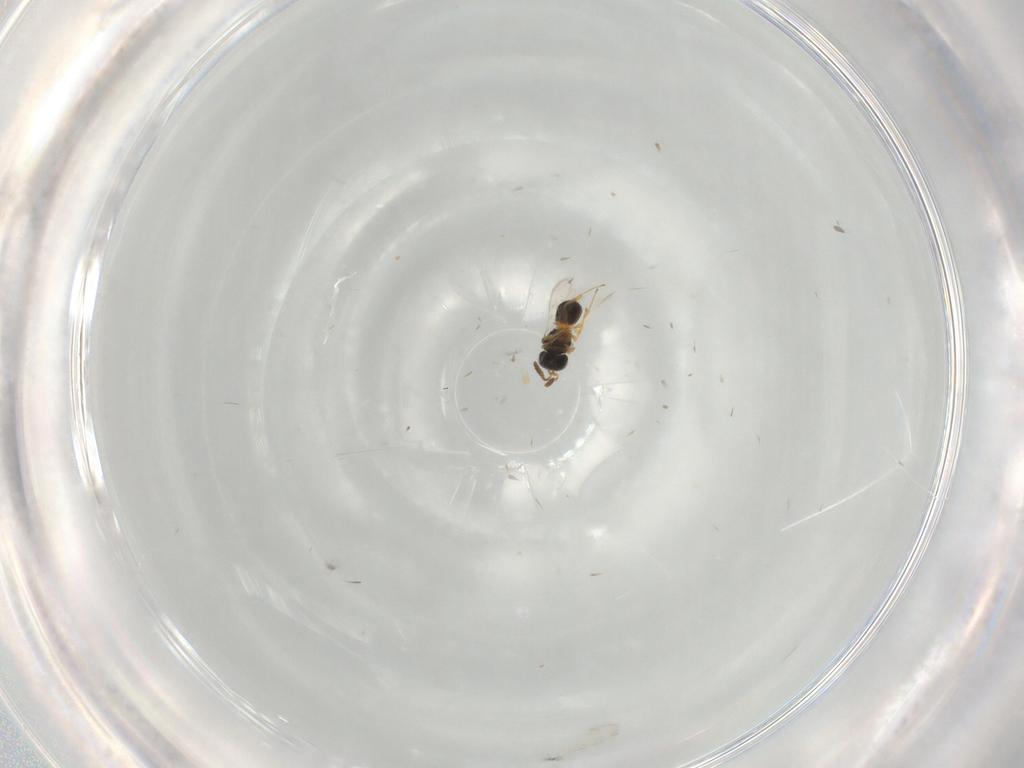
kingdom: Animalia
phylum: Arthropoda
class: Insecta
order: Hymenoptera
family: Scelionidae
